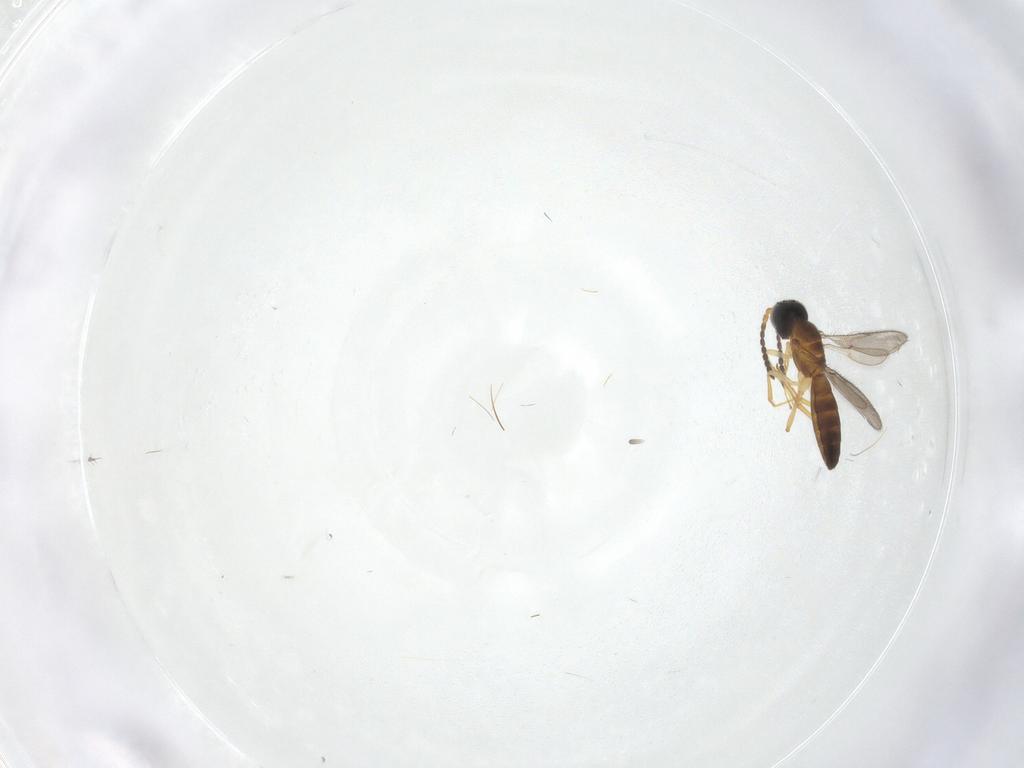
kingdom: Animalia
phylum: Arthropoda
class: Insecta
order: Hymenoptera
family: Scelionidae
